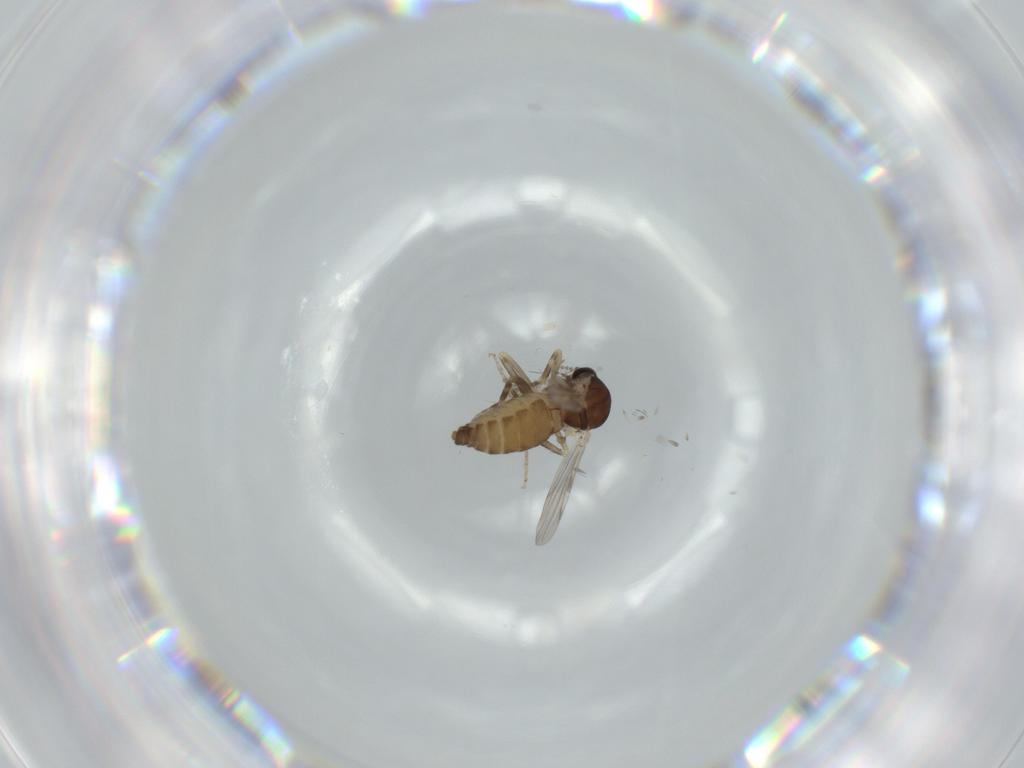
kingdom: Animalia
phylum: Arthropoda
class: Insecta
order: Diptera
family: Ceratopogonidae
